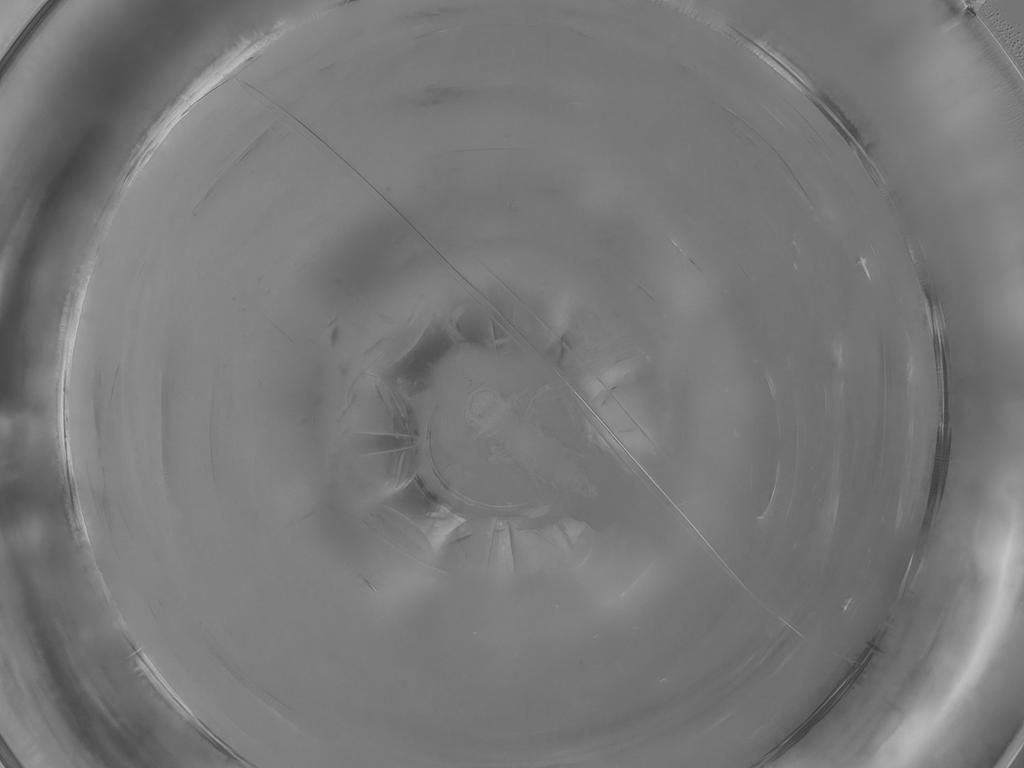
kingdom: Animalia
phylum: Arthropoda
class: Insecta
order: Diptera
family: Ceratopogonidae
